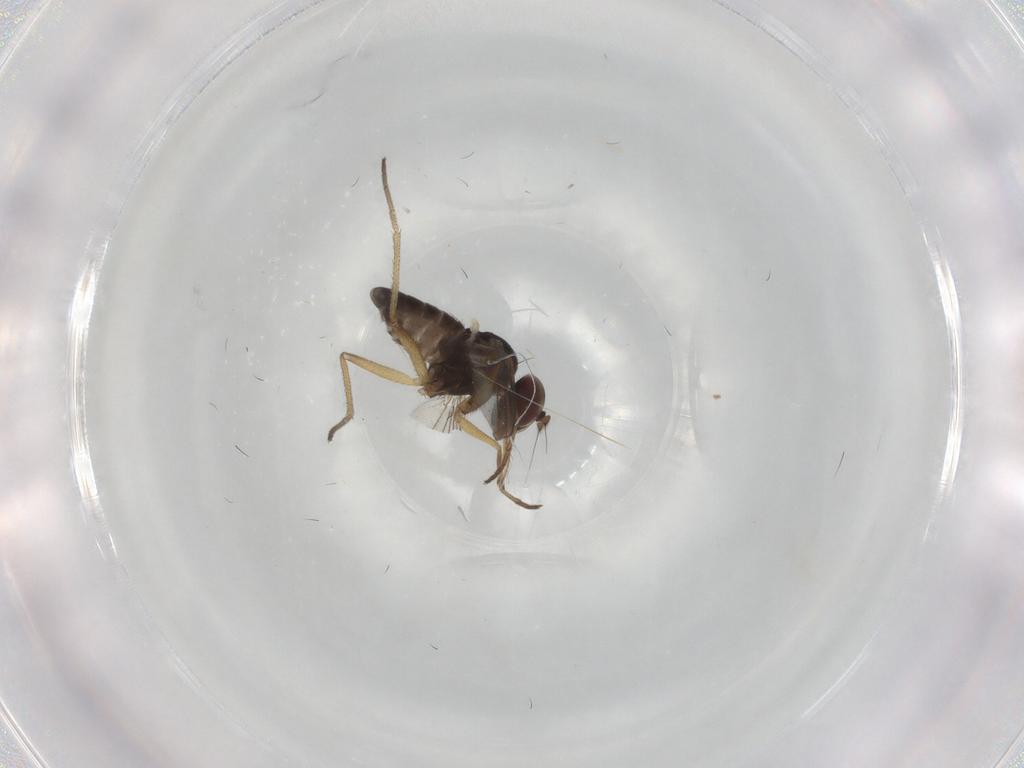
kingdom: Animalia
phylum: Arthropoda
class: Insecta
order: Diptera
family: Dolichopodidae
